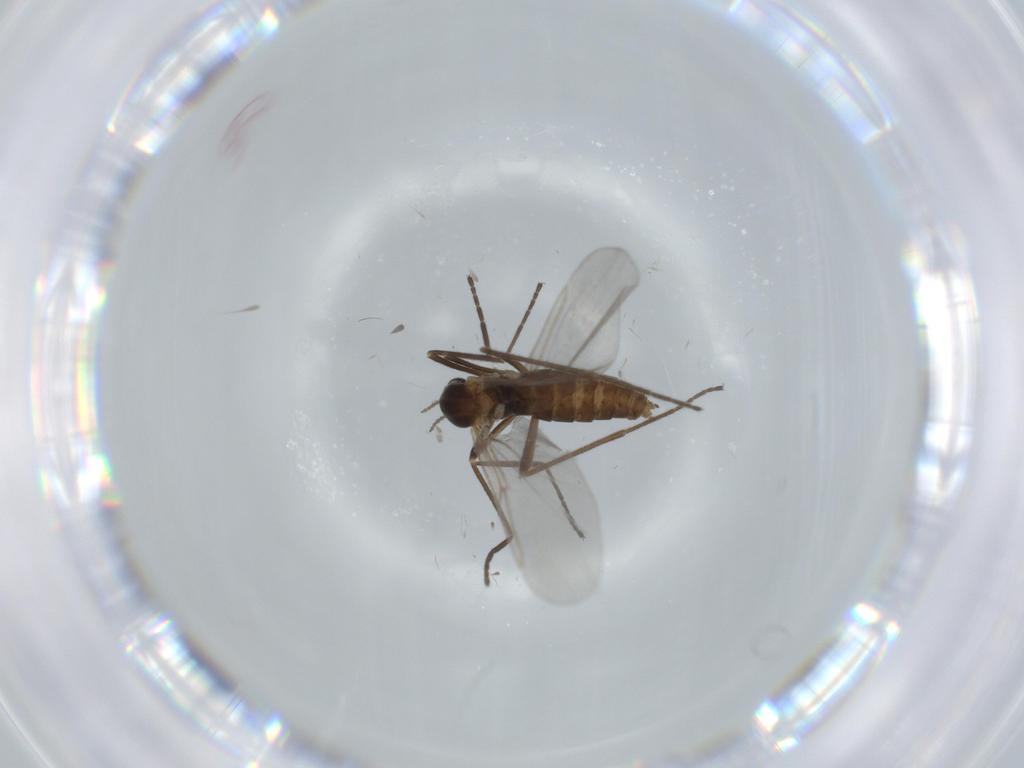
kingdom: Animalia
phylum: Arthropoda
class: Insecta
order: Diptera
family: Cecidomyiidae
